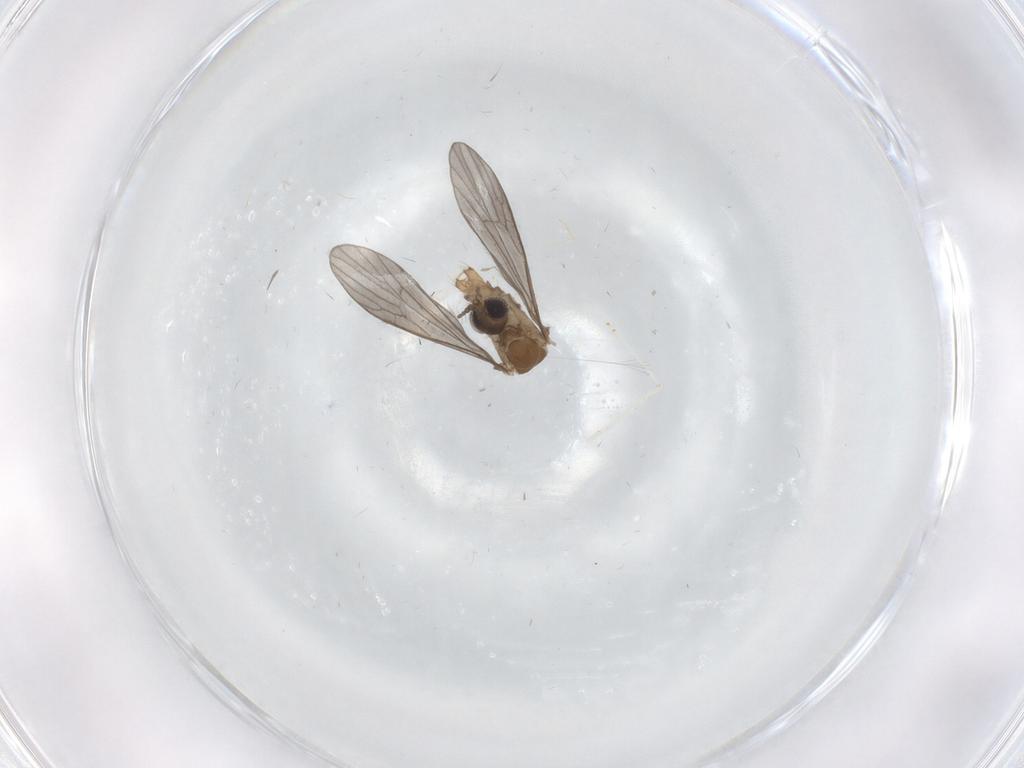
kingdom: Animalia
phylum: Arthropoda
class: Insecta
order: Diptera
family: Limoniidae
